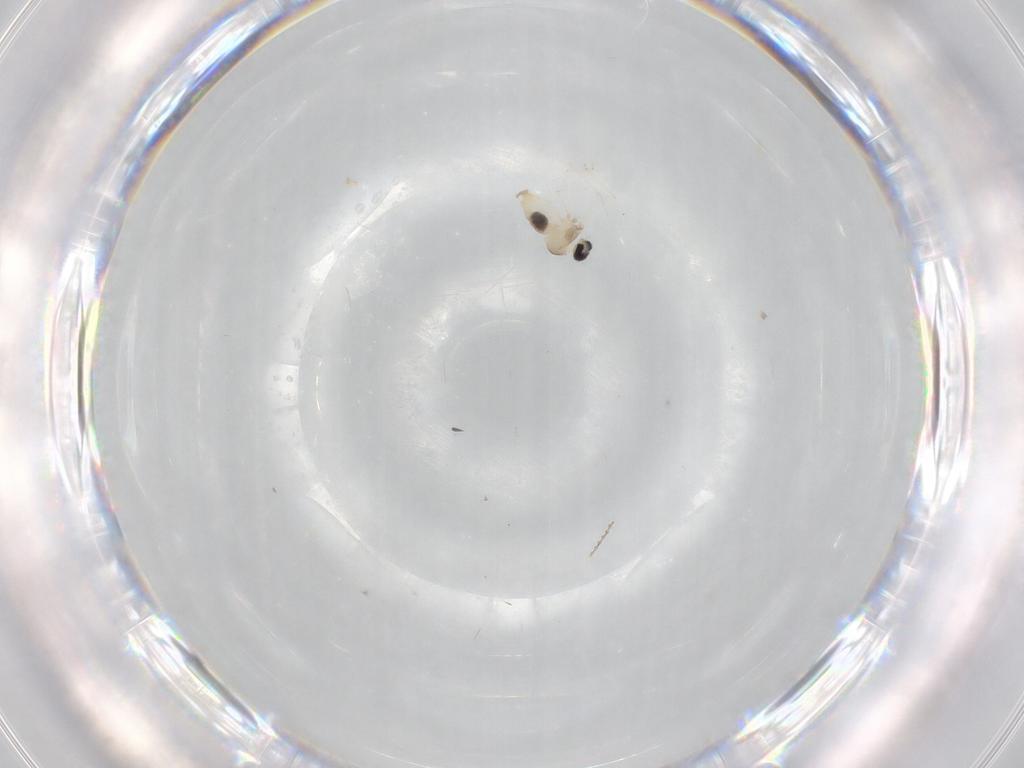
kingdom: Animalia
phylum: Arthropoda
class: Insecta
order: Diptera
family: Cecidomyiidae
